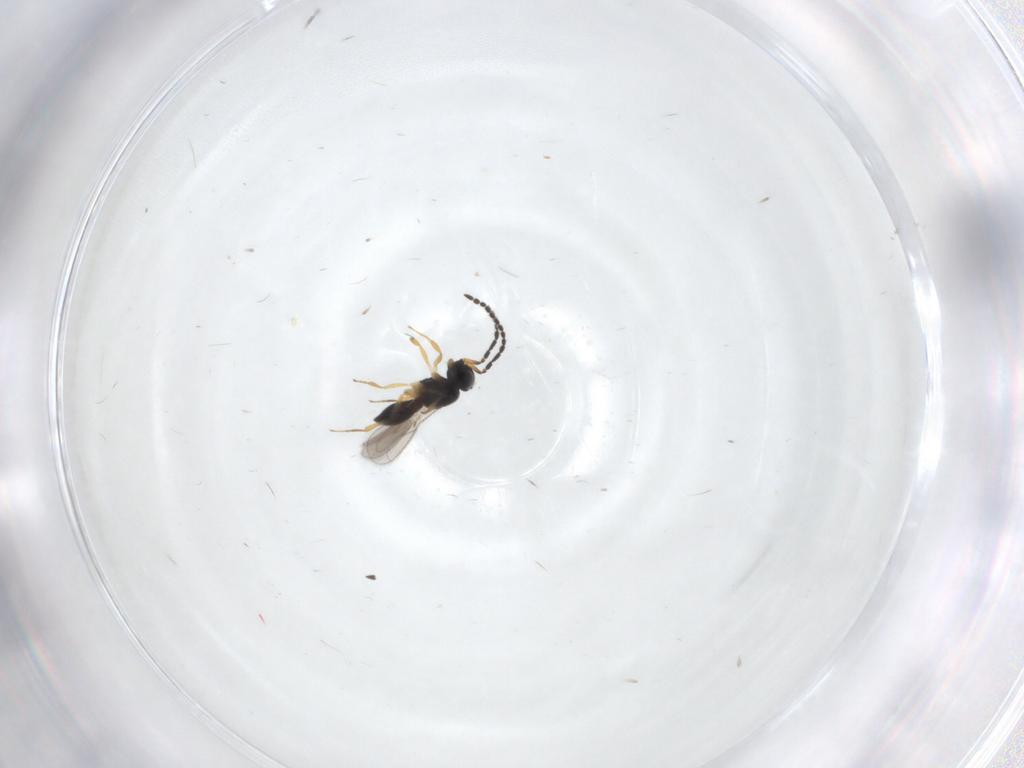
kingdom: Animalia
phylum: Arthropoda
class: Insecta
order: Hymenoptera
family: Scelionidae
